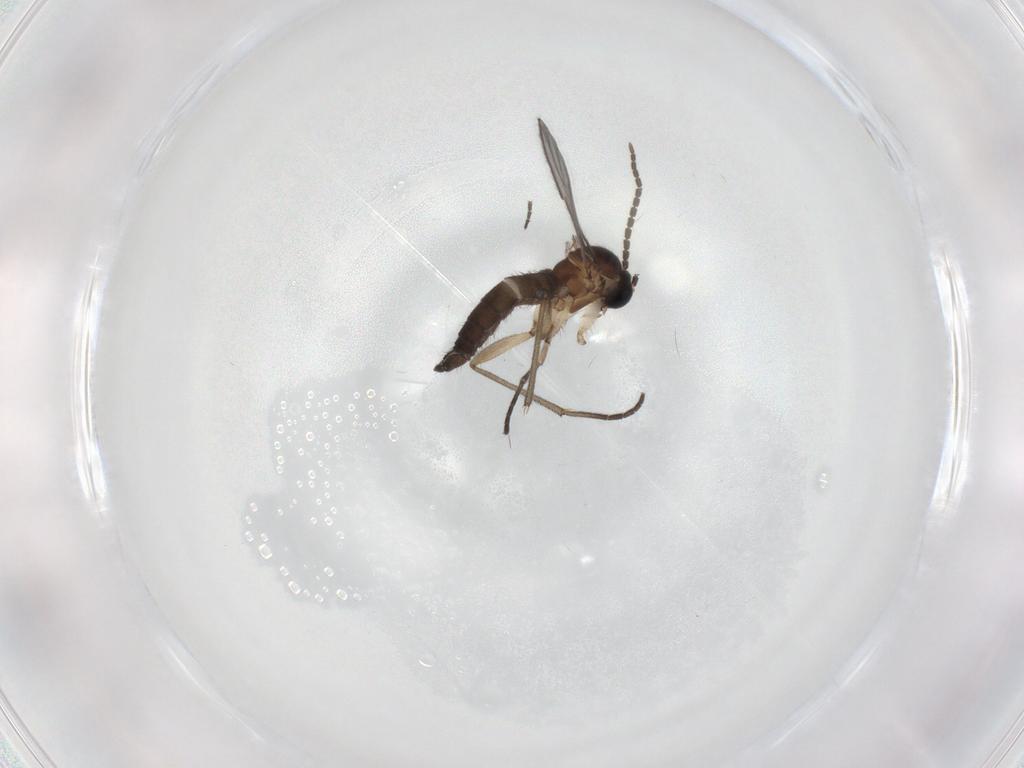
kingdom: Animalia
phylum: Arthropoda
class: Insecta
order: Diptera
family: Sciaridae
